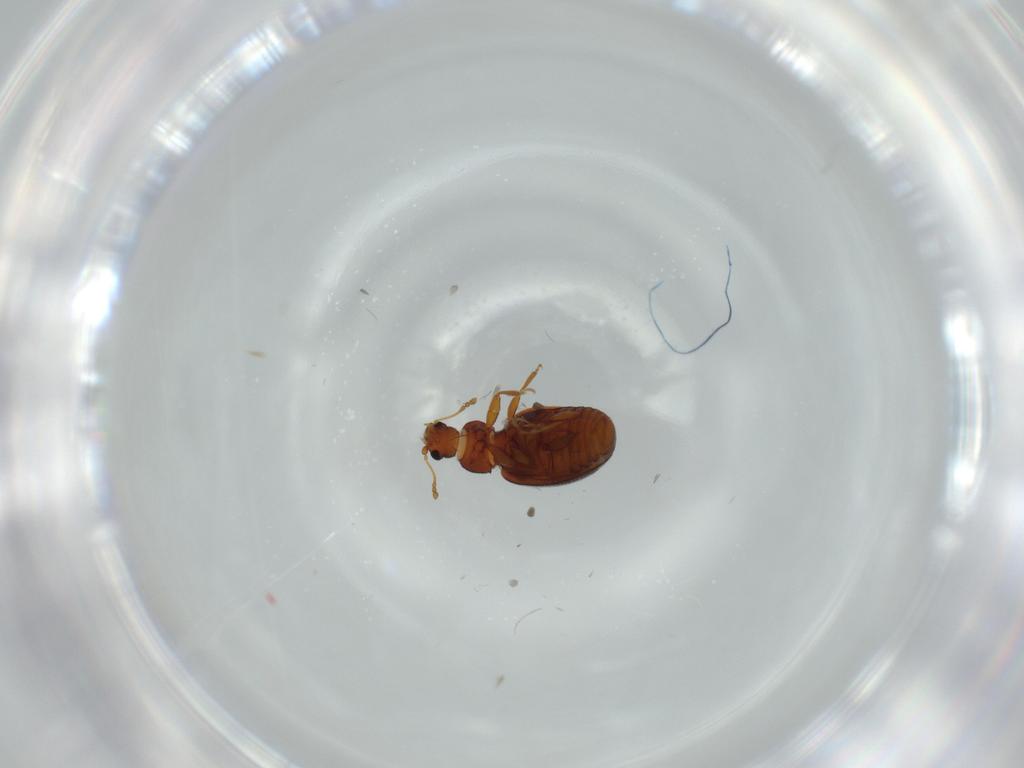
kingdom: Animalia
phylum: Arthropoda
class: Insecta
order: Coleoptera
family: Latridiidae
